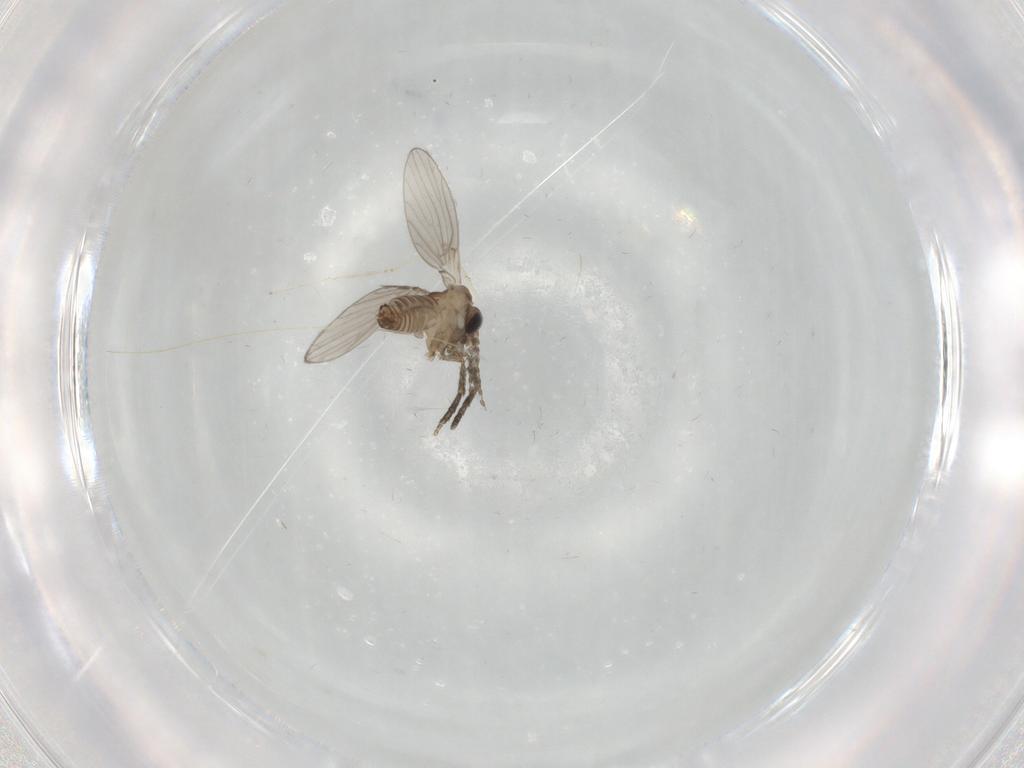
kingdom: Animalia
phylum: Arthropoda
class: Insecta
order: Diptera
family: Cecidomyiidae
